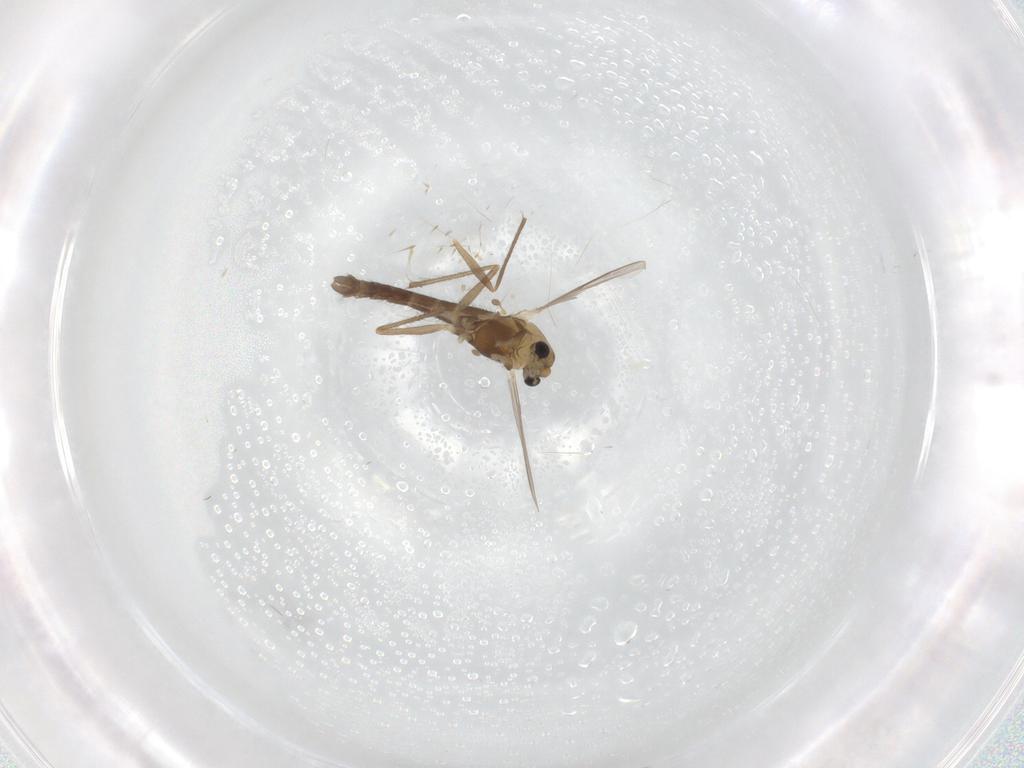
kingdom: Animalia
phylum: Arthropoda
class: Insecta
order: Diptera
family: Chironomidae
